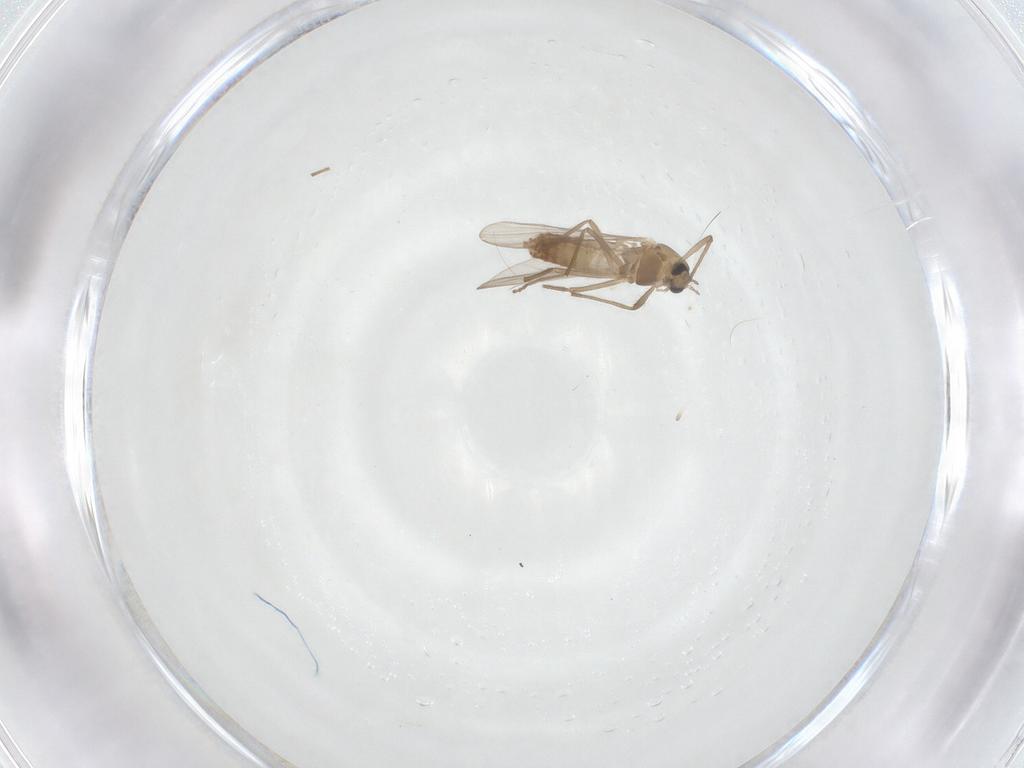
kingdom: Animalia
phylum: Arthropoda
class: Insecta
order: Diptera
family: Chironomidae
